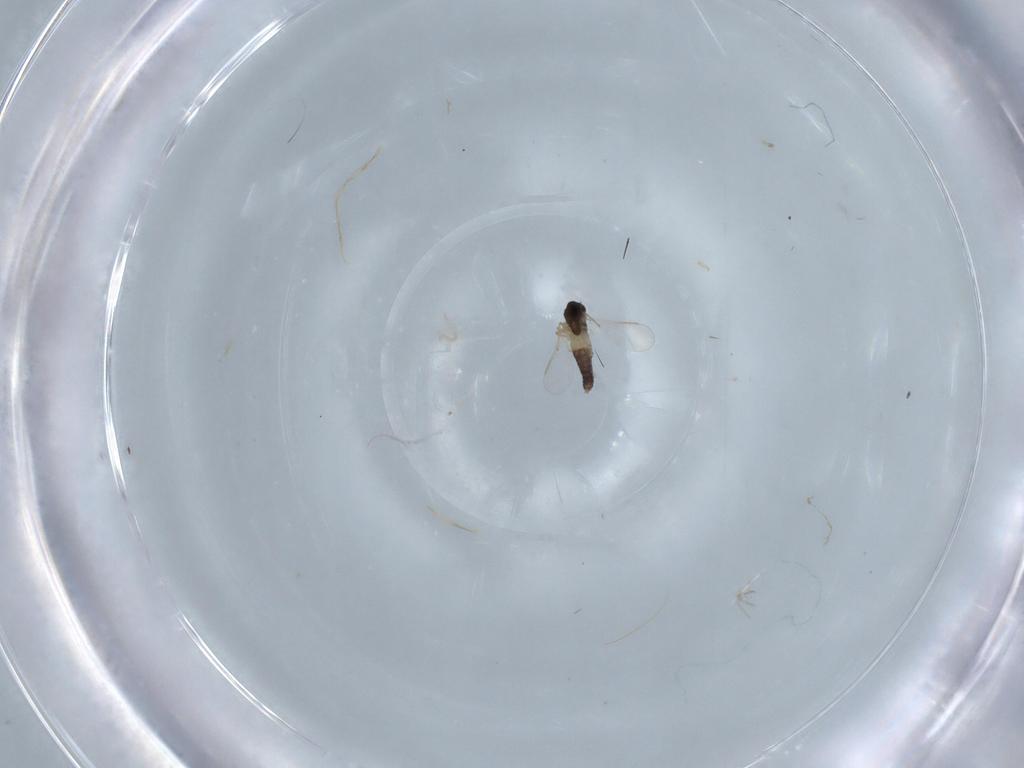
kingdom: Animalia
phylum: Arthropoda
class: Insecta
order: Diptera
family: Chironomidae
